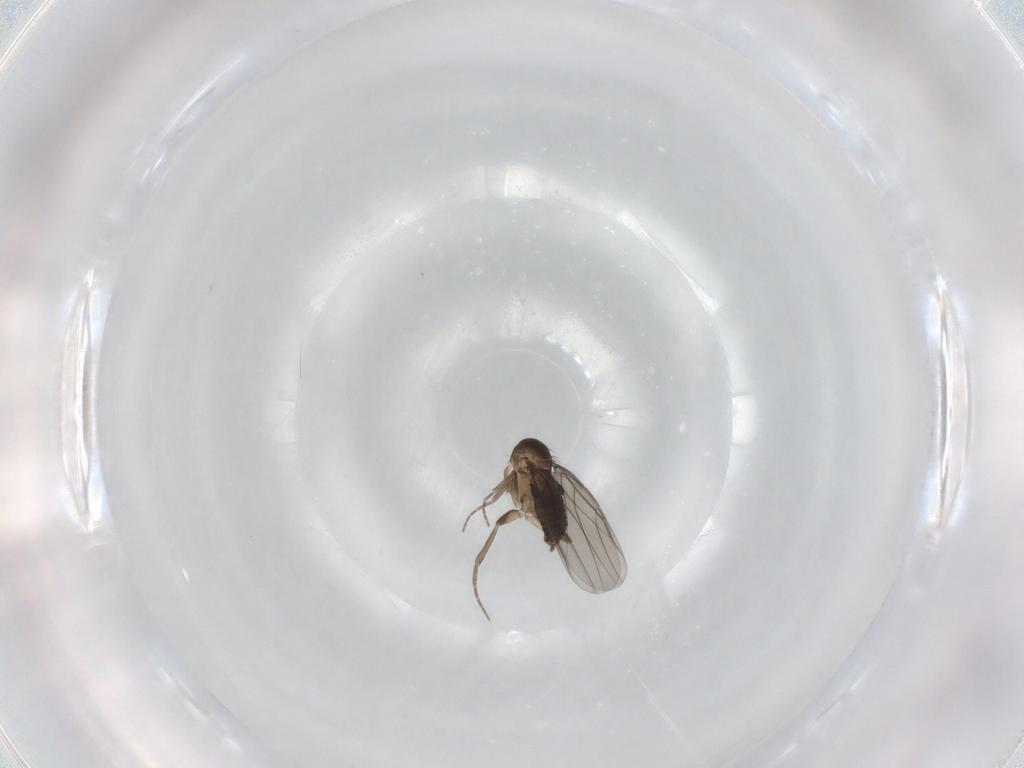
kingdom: Animalia
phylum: Arthropoda
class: Insecta
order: Diptera
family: Phoridae
